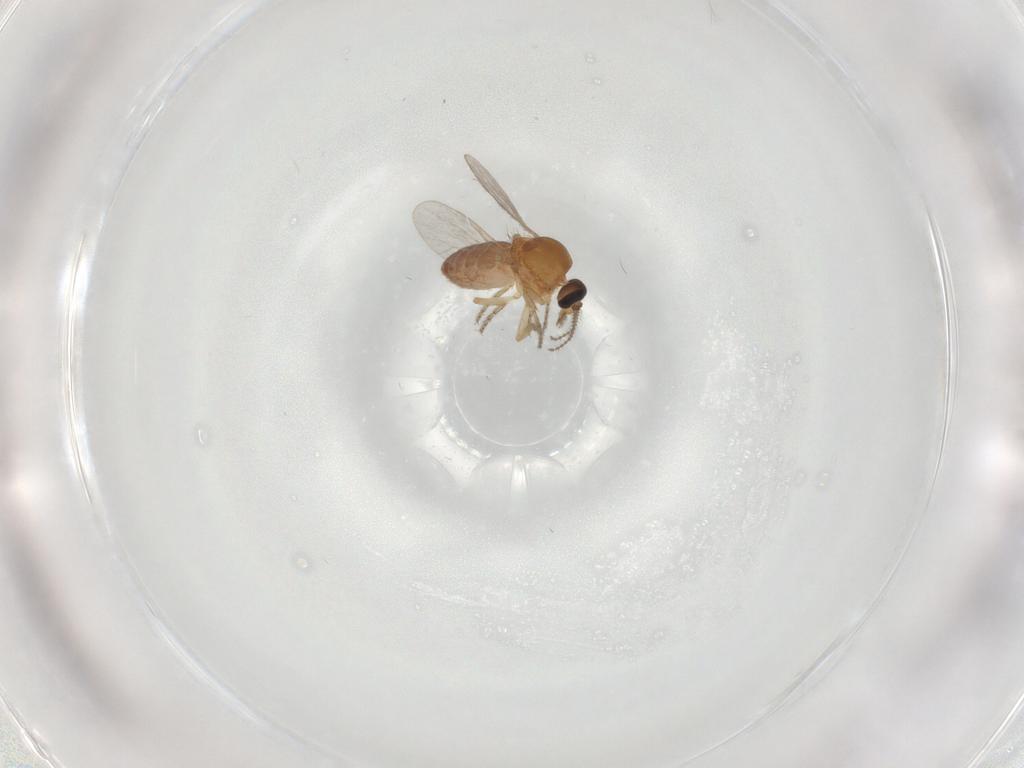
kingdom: Animalia
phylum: Arthropoda
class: Insecta
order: Diptera
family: Ceratopogonidae
